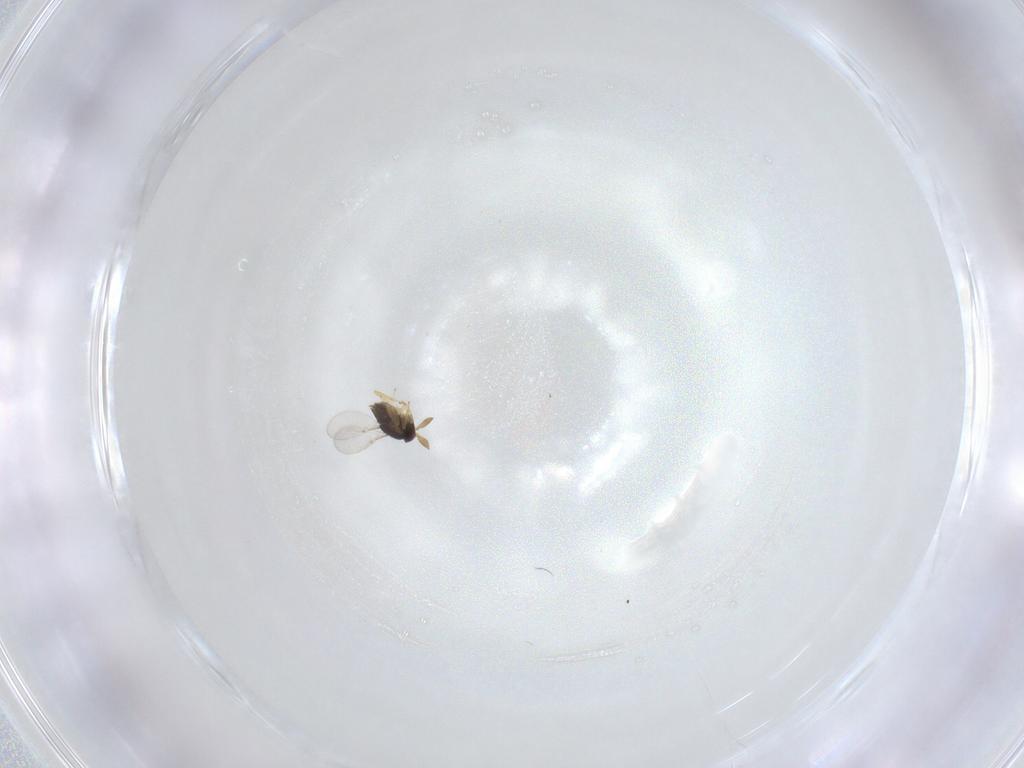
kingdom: Animalia
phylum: Arthropoda
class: Insecta
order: Diptera
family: Chironomidae
